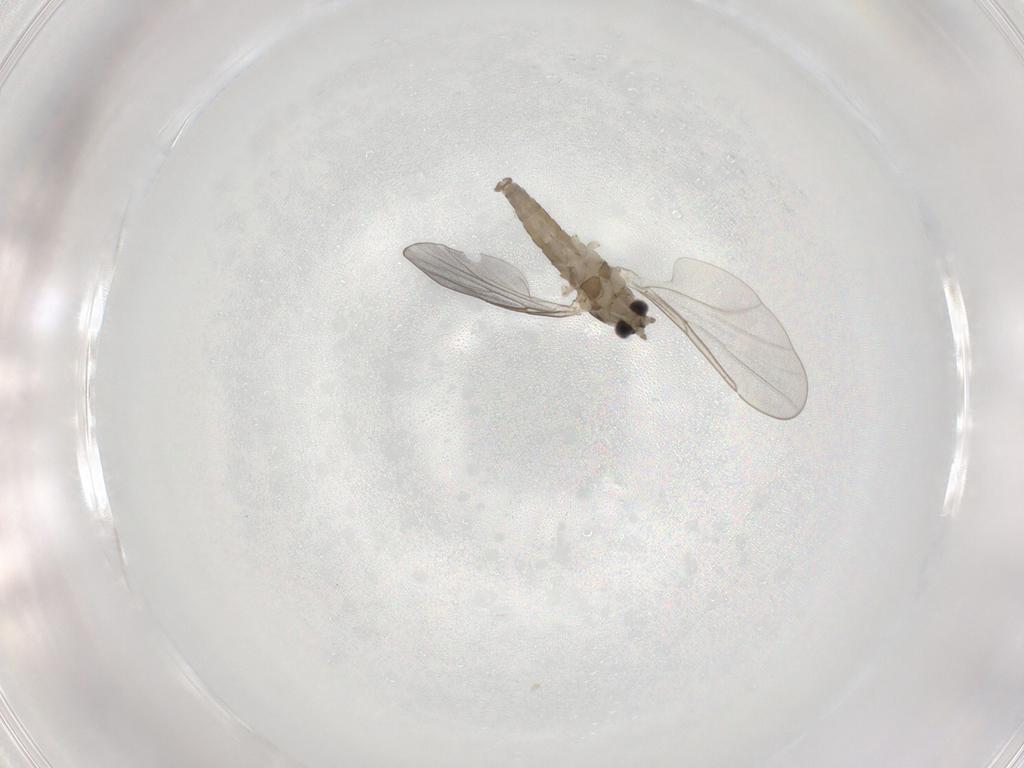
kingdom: Animalia
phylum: Arthropoda
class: Insecta
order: Diptera
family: Cecidomyiidae
